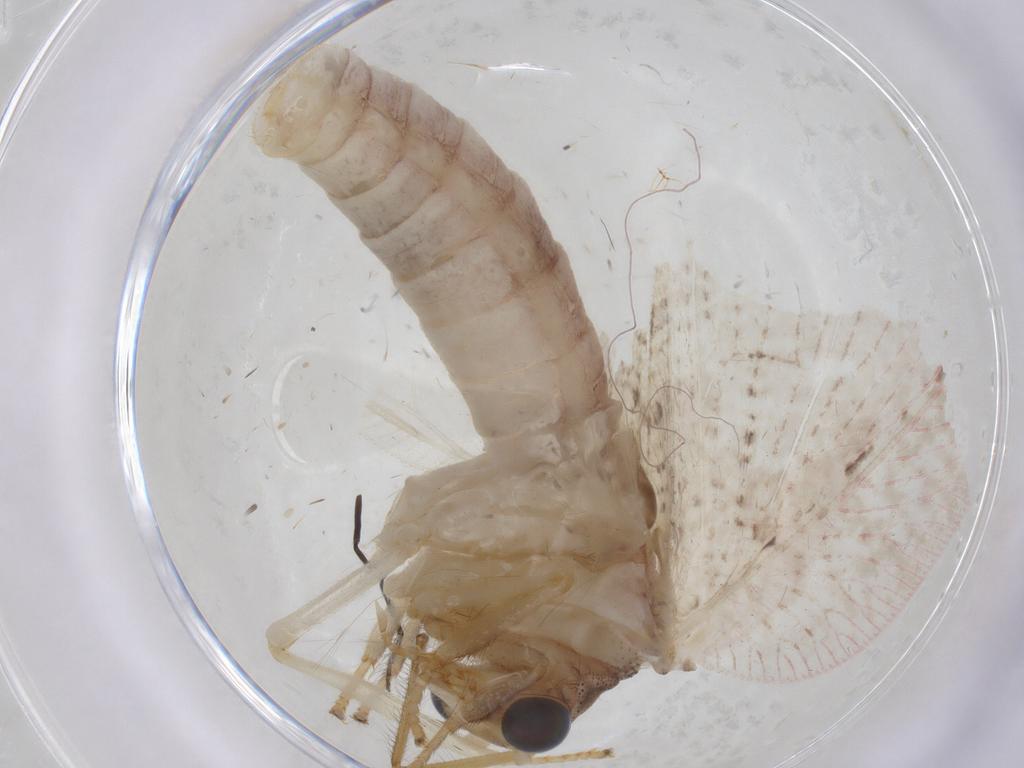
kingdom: Animalia
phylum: Arthropoda
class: Insecta
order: Neuroptera
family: Hemerobiidae
